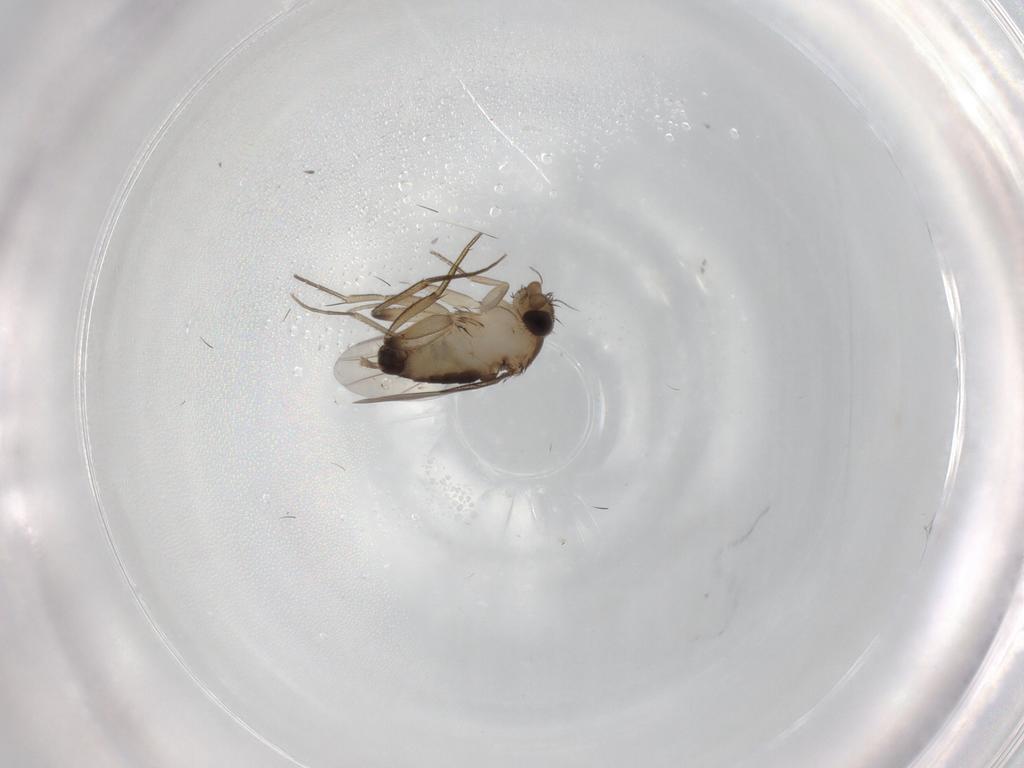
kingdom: Animalia
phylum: Arthropoda
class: Insecta
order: Diptera
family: Phoridae
